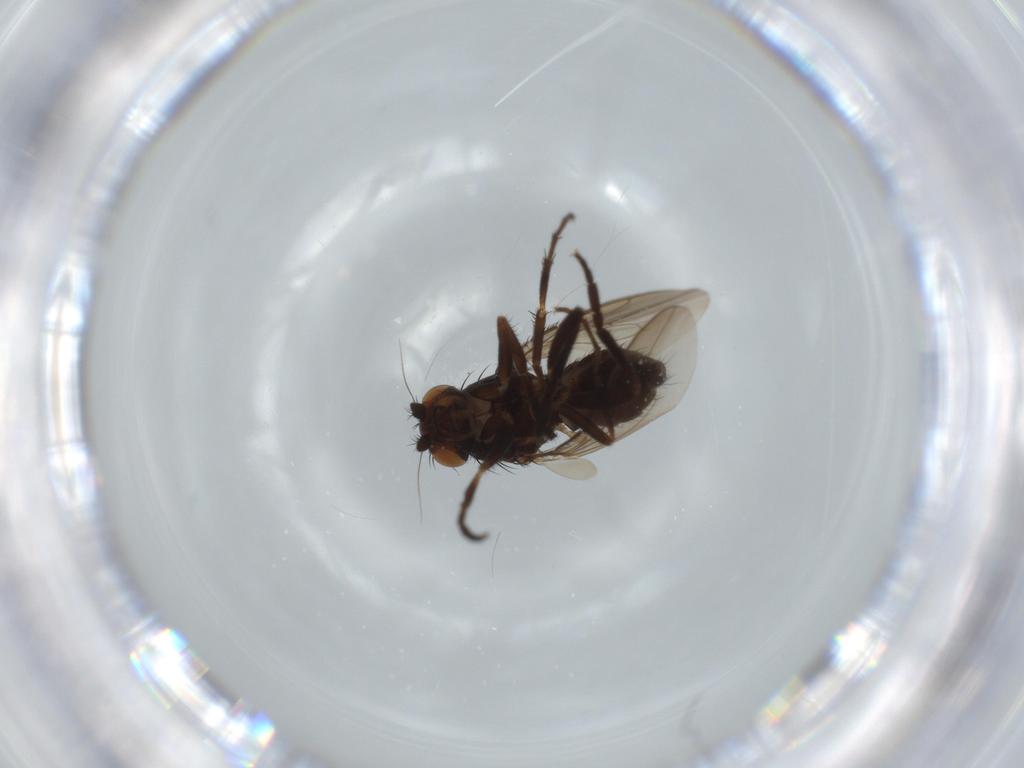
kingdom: Animalia
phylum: Arthropoda
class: Insecta
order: Diptera
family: Sphaeroceridae
